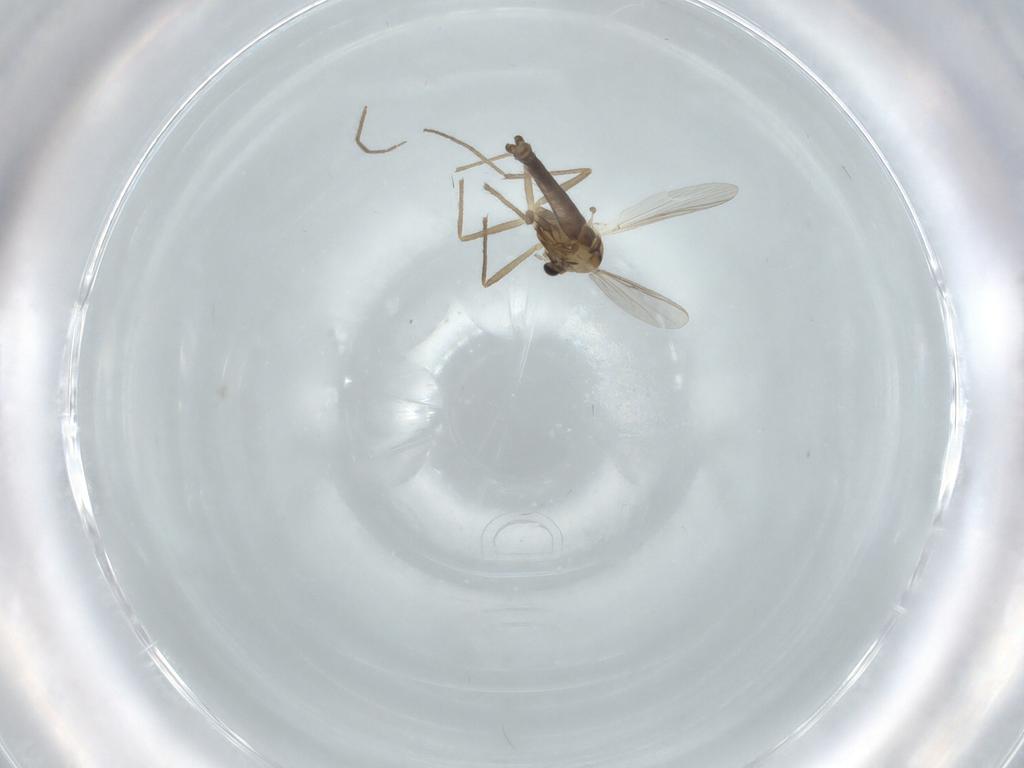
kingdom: Animalia
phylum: Arthropoda
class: Insecta
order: Diptera
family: Chironomidae
